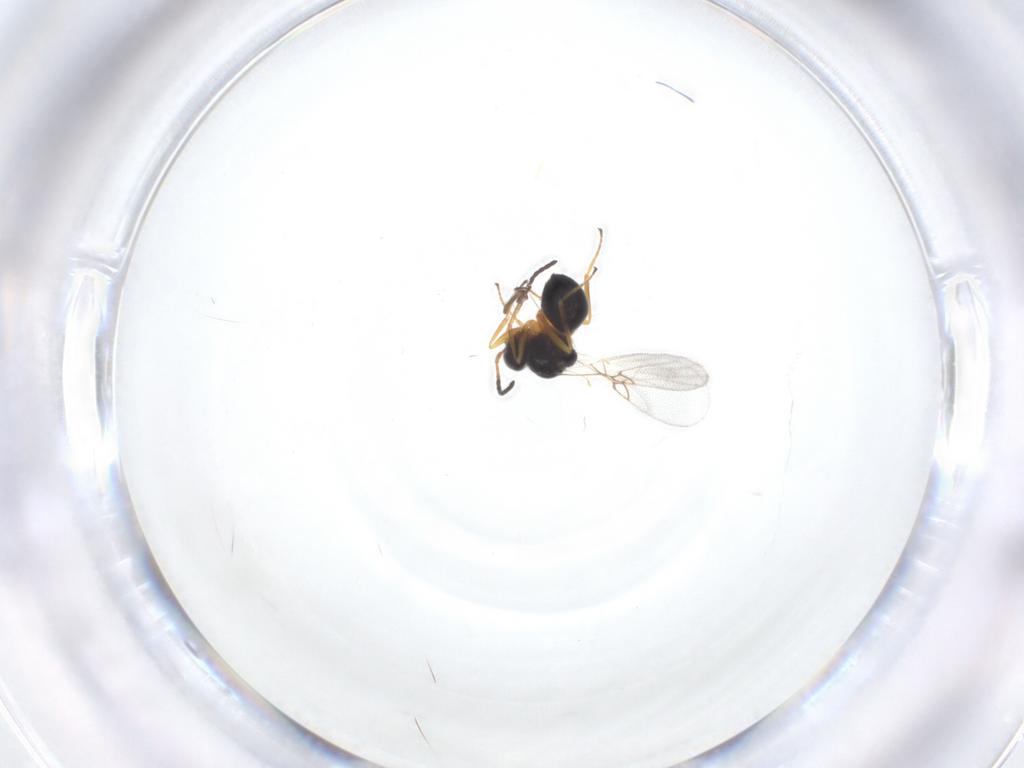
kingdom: Animalia
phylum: Arthropoda
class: Insecta
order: Hymenoptera
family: Figitidae
